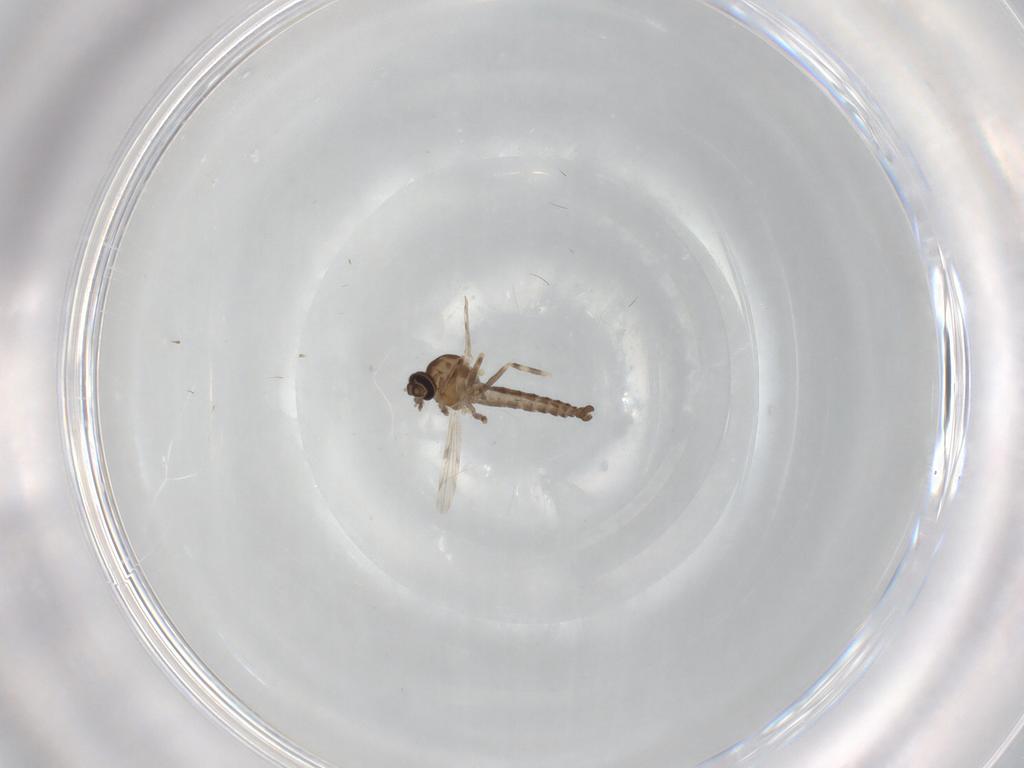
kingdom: Animalia
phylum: Arthropoda
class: Insecta
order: Diptera
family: Ceratopogonidae
